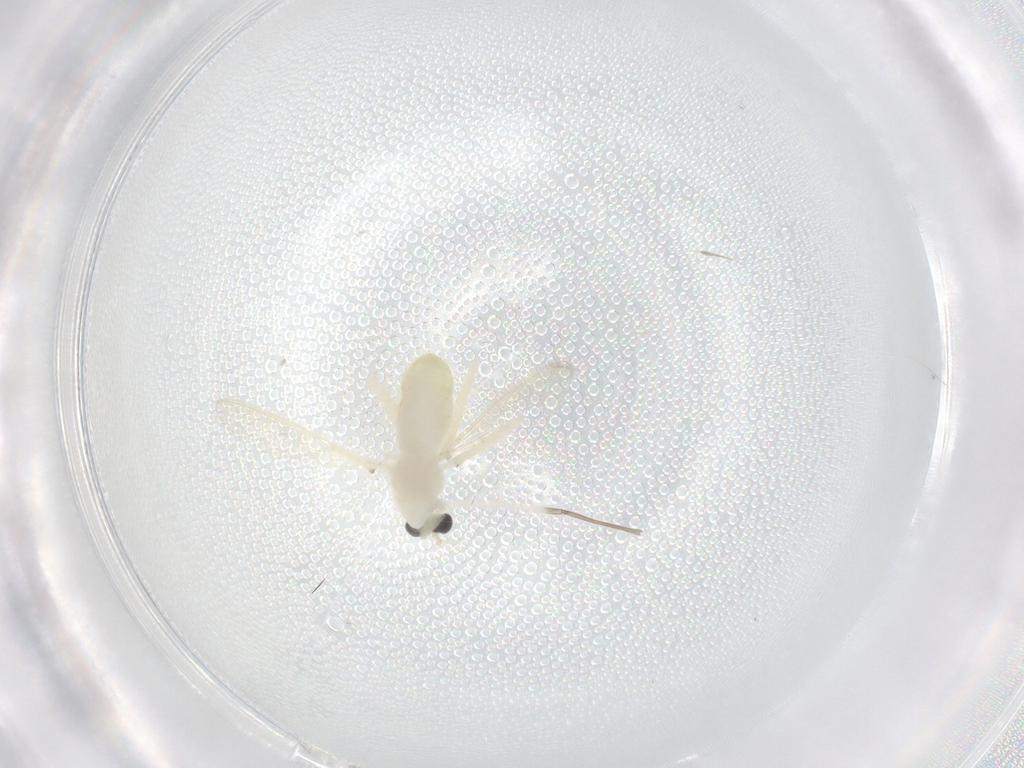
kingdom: Animalia
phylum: Arthropoda
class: Insecta
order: Diptera
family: Chironomidae
